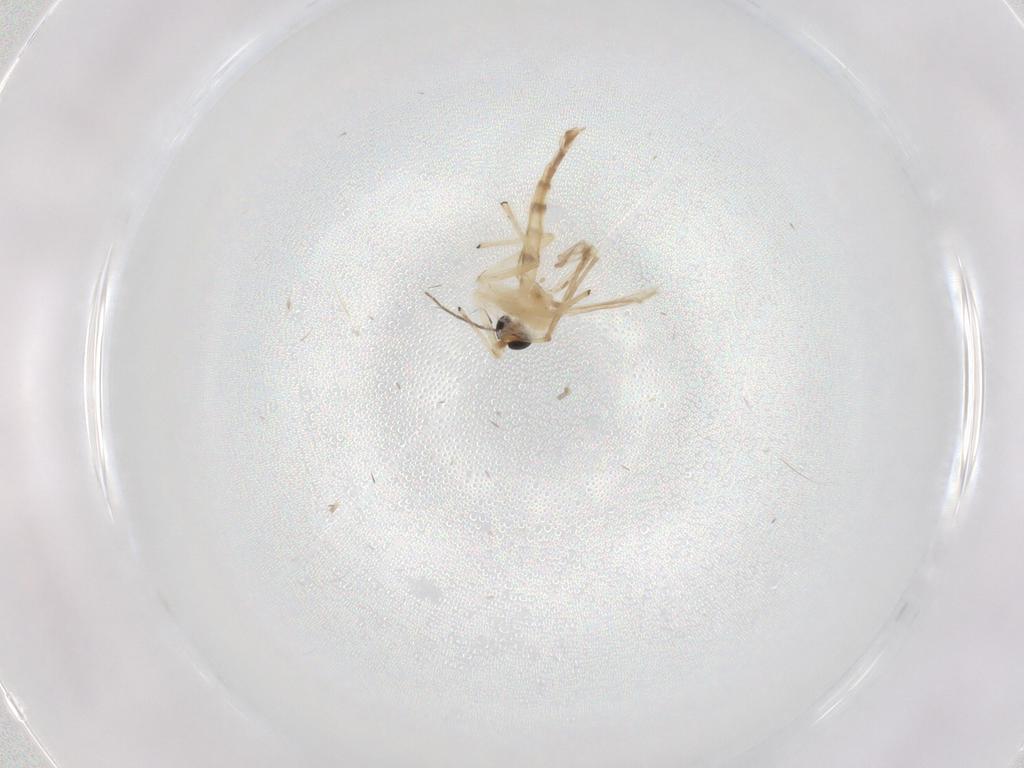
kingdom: Animalia
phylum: Arthropoda
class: Insecta
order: Diptera
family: Chironomidae
